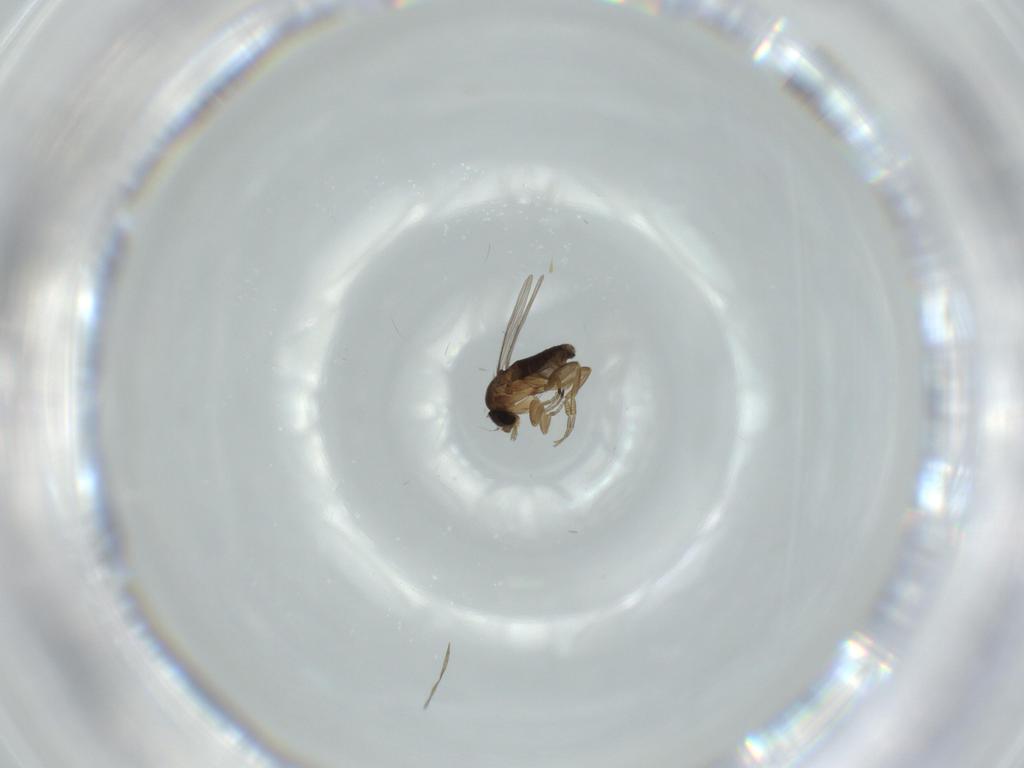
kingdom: Animalia
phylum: Arthropoda
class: Insecta
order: Diptera
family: Phoridae
